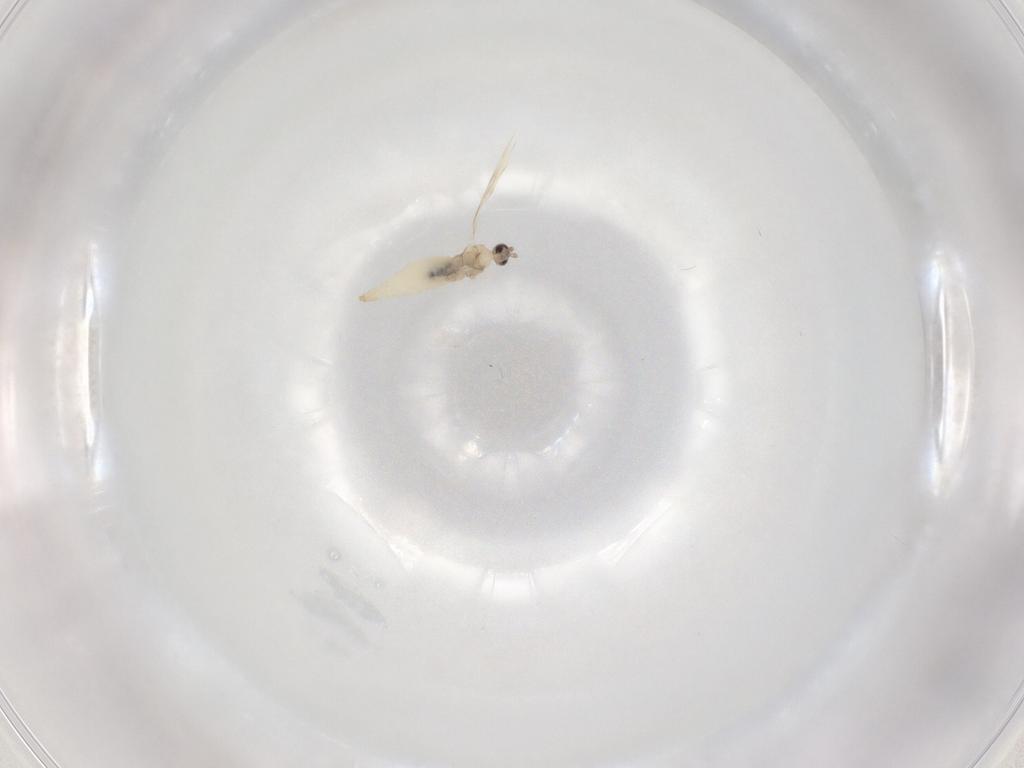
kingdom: Animalia
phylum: Arthropoda
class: Insecta
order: Diptera
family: Cecidomyiidae
